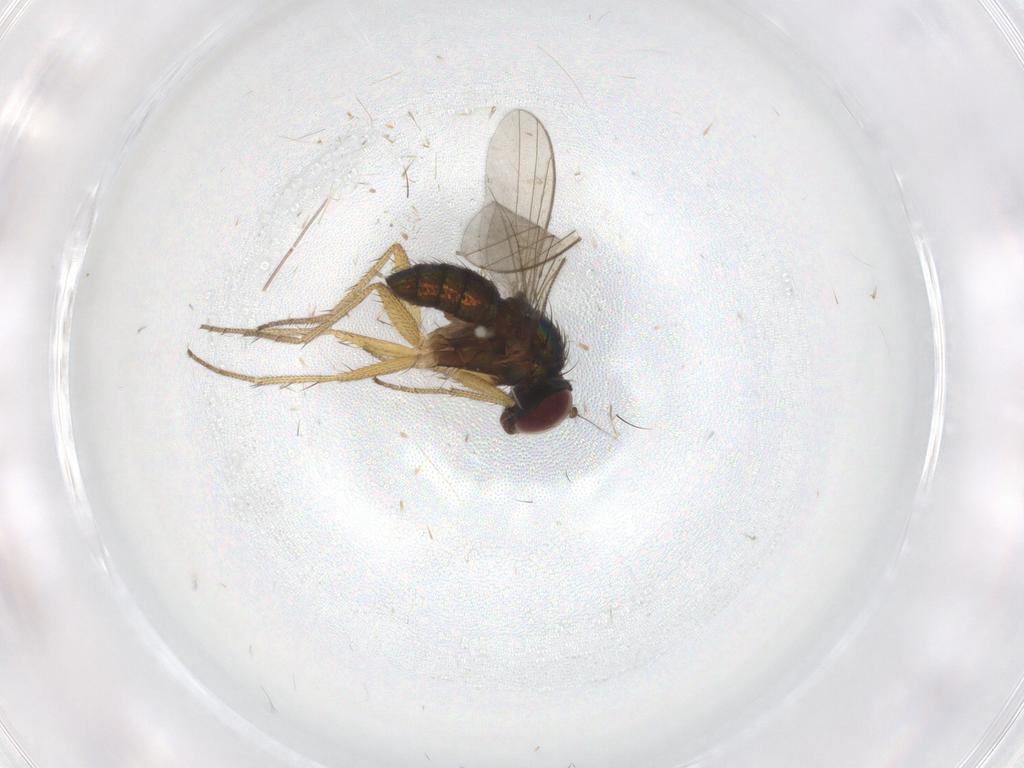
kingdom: Animalia
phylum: Arthropoda
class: Insecta
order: Diptera
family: Dolichopodidae
